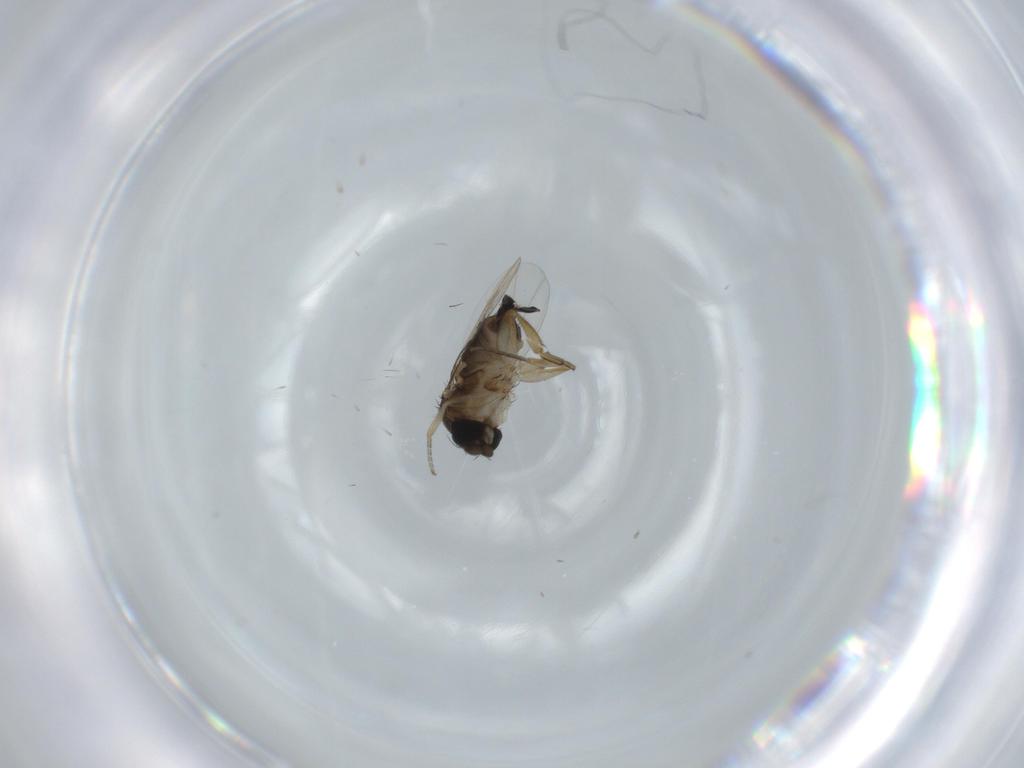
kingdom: Animalia
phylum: Arthropoda
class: Insecta
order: Diptera
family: Phoridae
